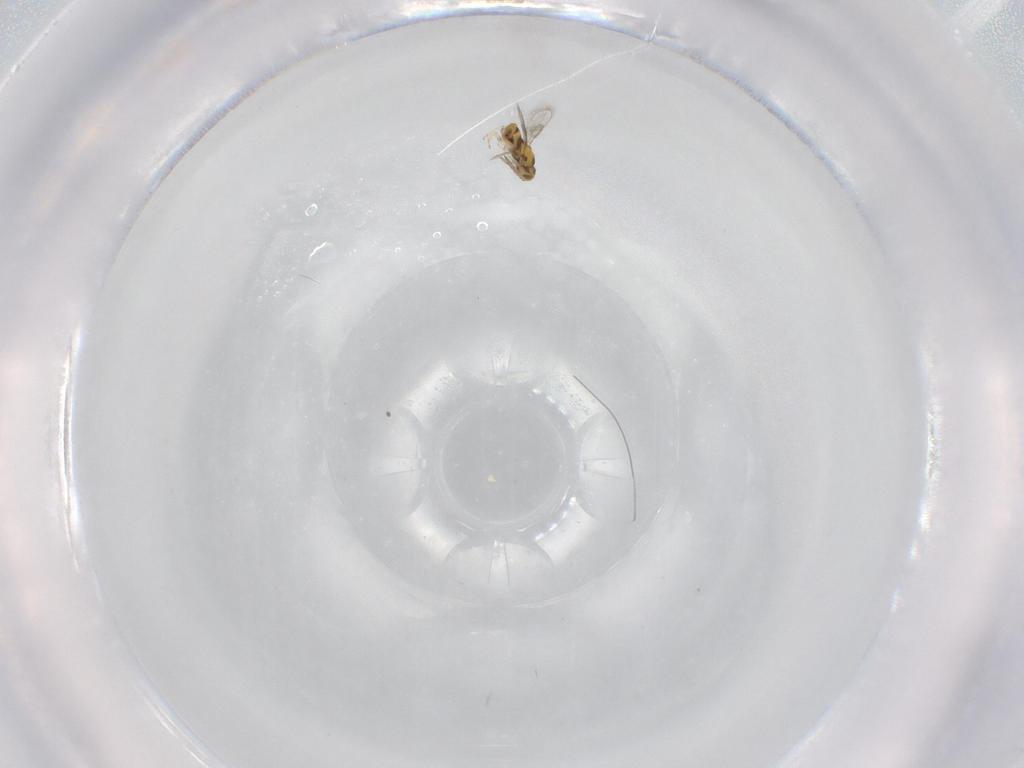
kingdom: Animalia
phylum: Arthropoda
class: Insecta
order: Hymenoptera
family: Aphelinidae
